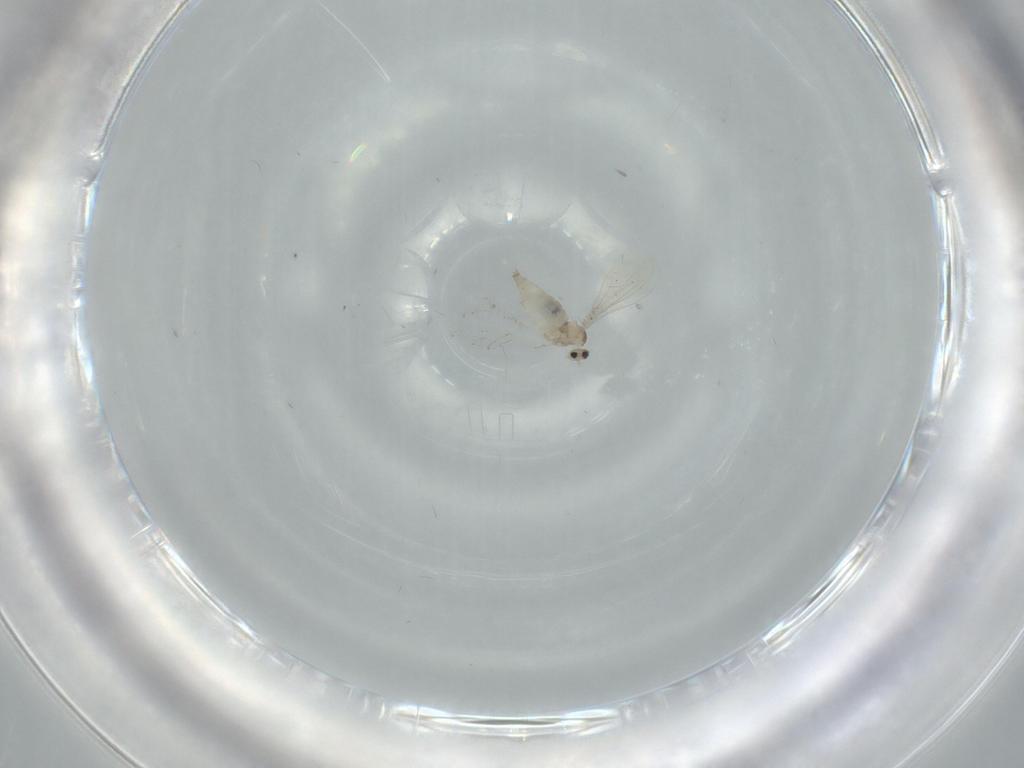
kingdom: Animalia
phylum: Arthropoda
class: Insecta
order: Diptera
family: Cecidomyiidae
